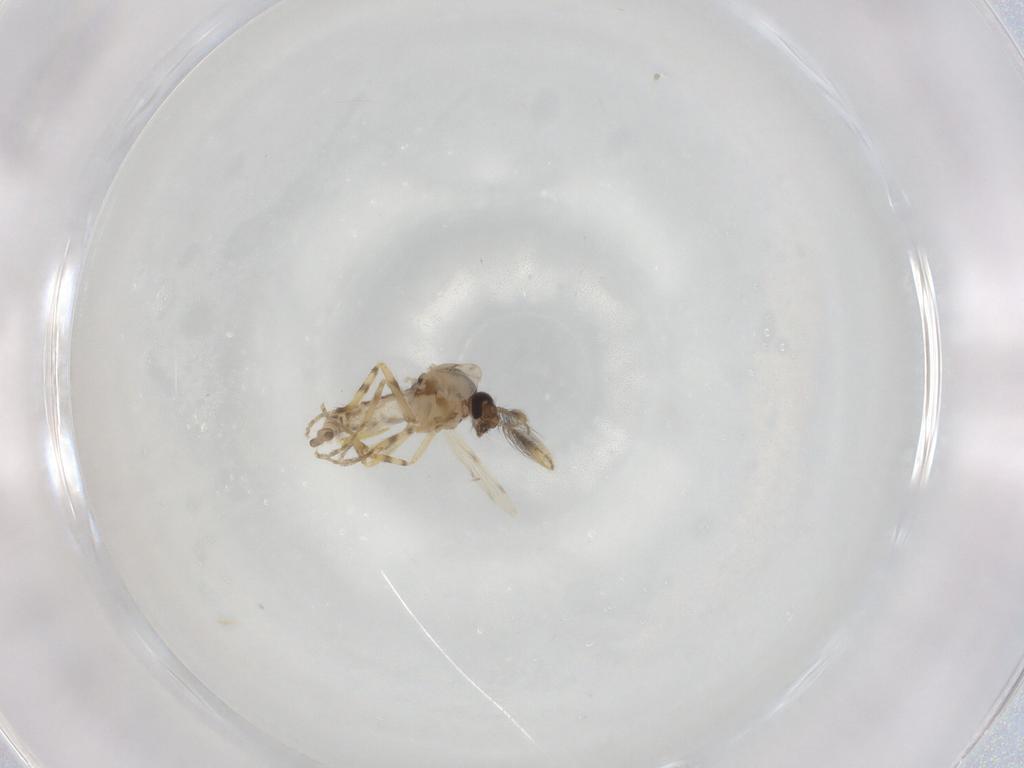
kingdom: Animalia
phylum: Arthropoda
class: Insecta
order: Diptera
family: Ceratopogonidae
